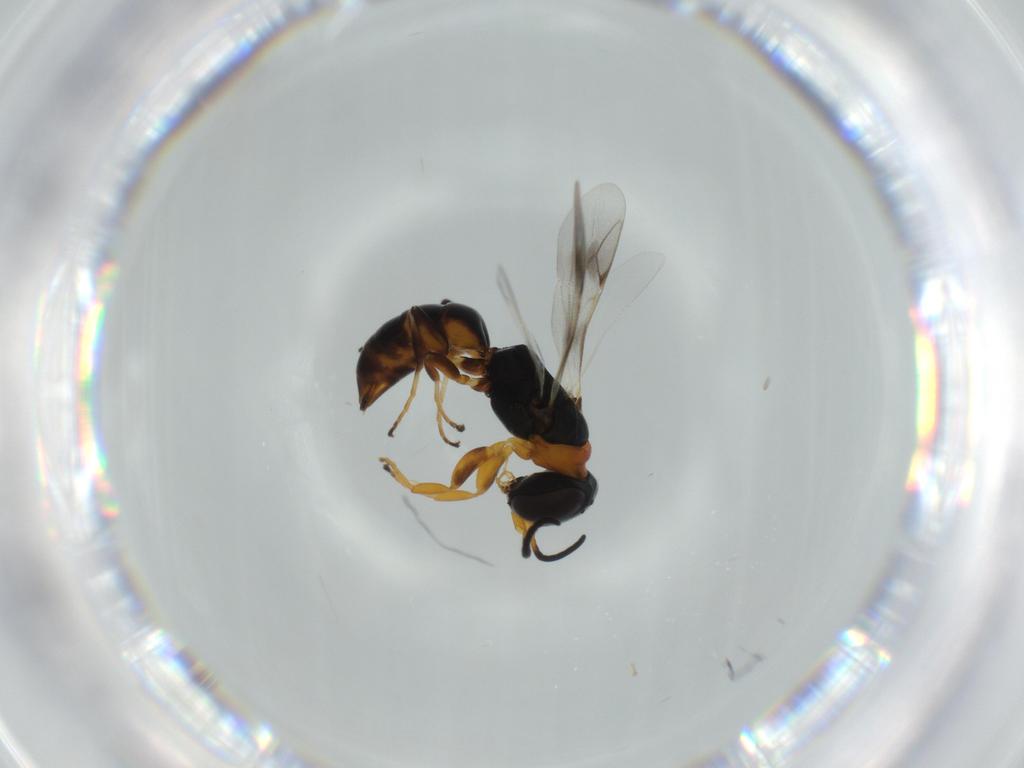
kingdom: Animalia
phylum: Arthropoda
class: Insecta
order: Hymenoptera
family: Crabronidae
